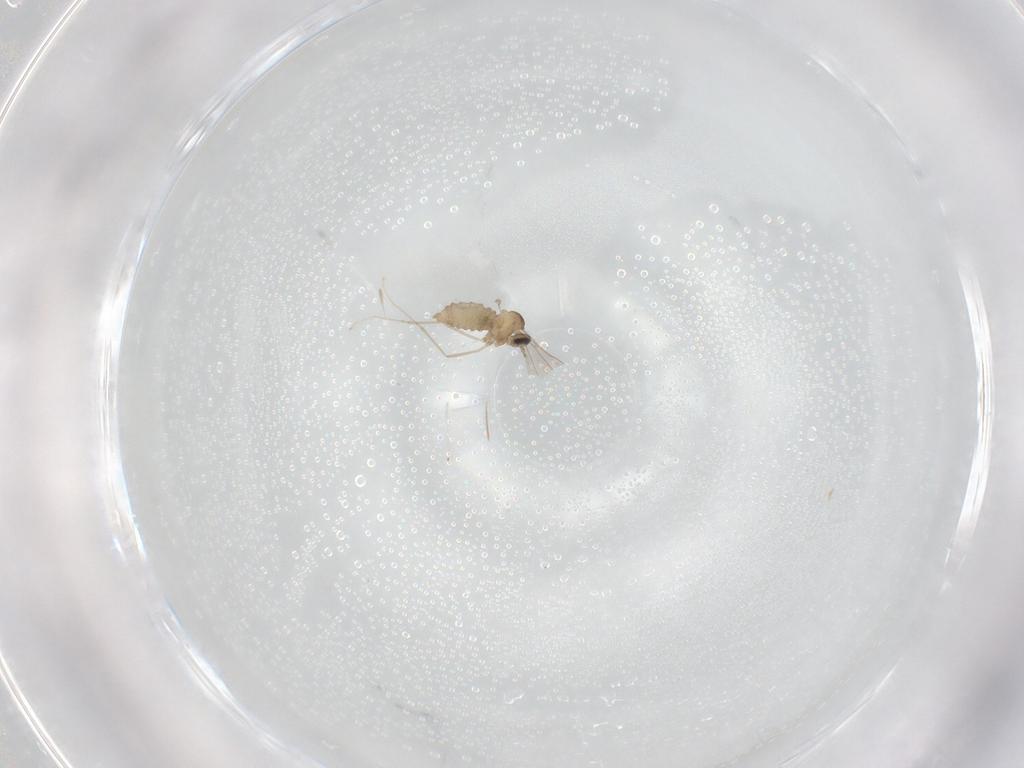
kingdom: Animalia
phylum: Arthropoda
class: Insecta
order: Diptera
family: Cecidomyiidae
